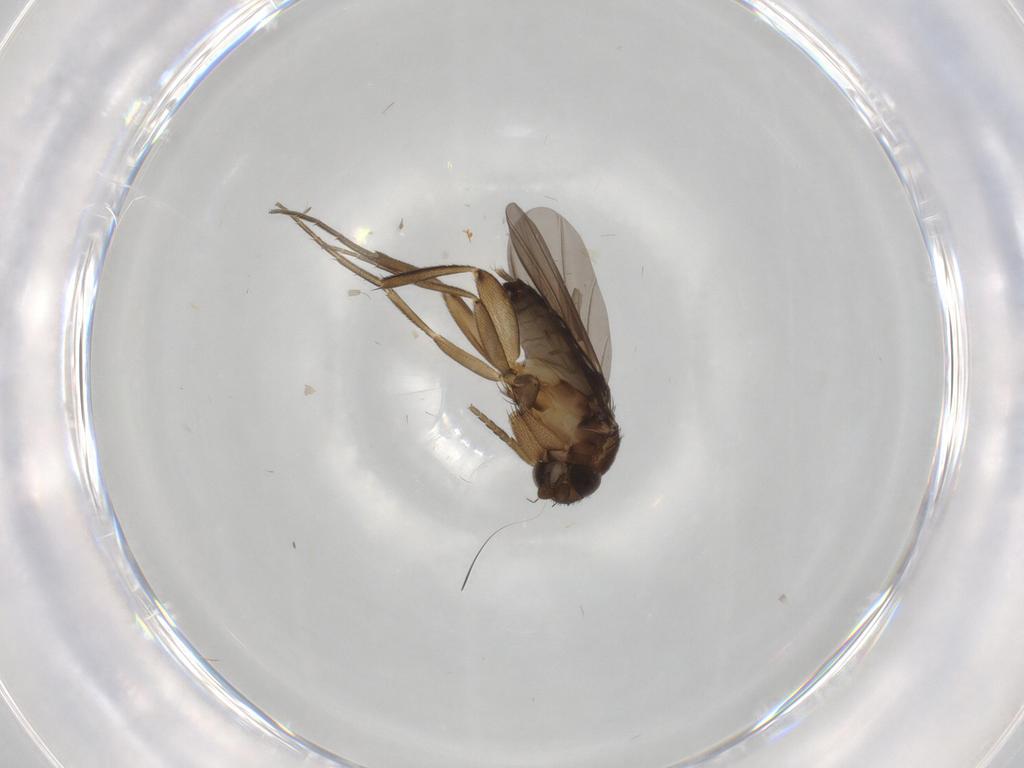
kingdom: Animalia
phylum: Arthropoda
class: Insecta
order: Diptera
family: Phoridae
